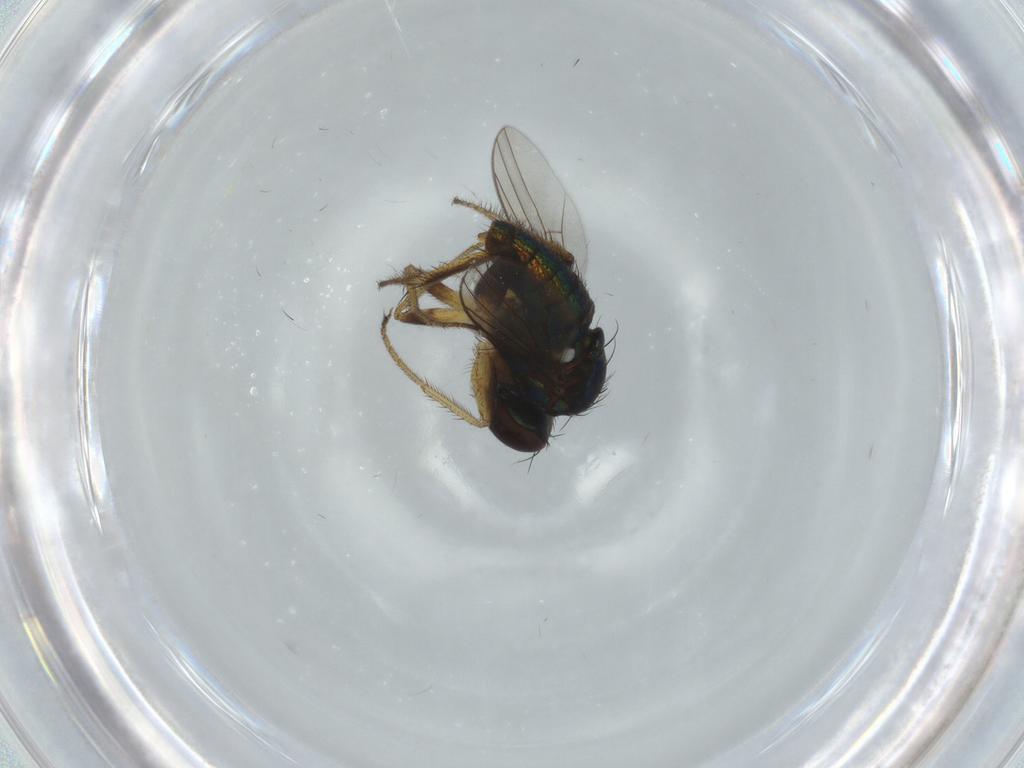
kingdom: Animalia
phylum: Arthropoda
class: Insecta
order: Diptera
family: Dolichopodidae
